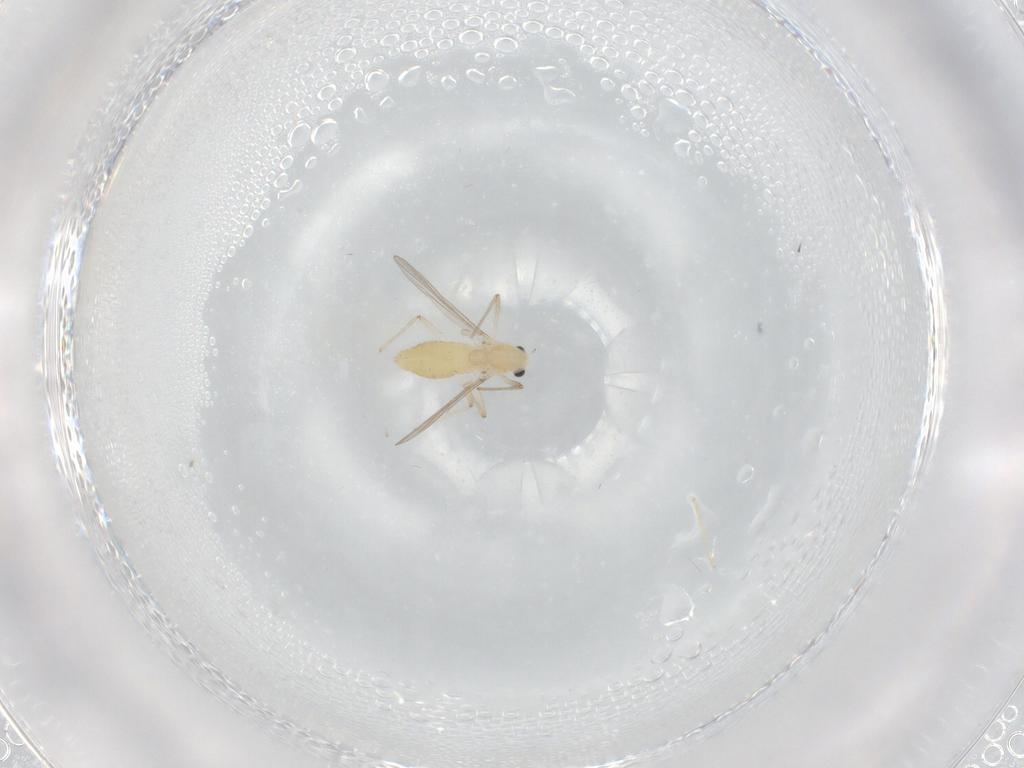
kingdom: Animalia
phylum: Arthropoda
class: Insecta
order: Diptera
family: Chironomidae
